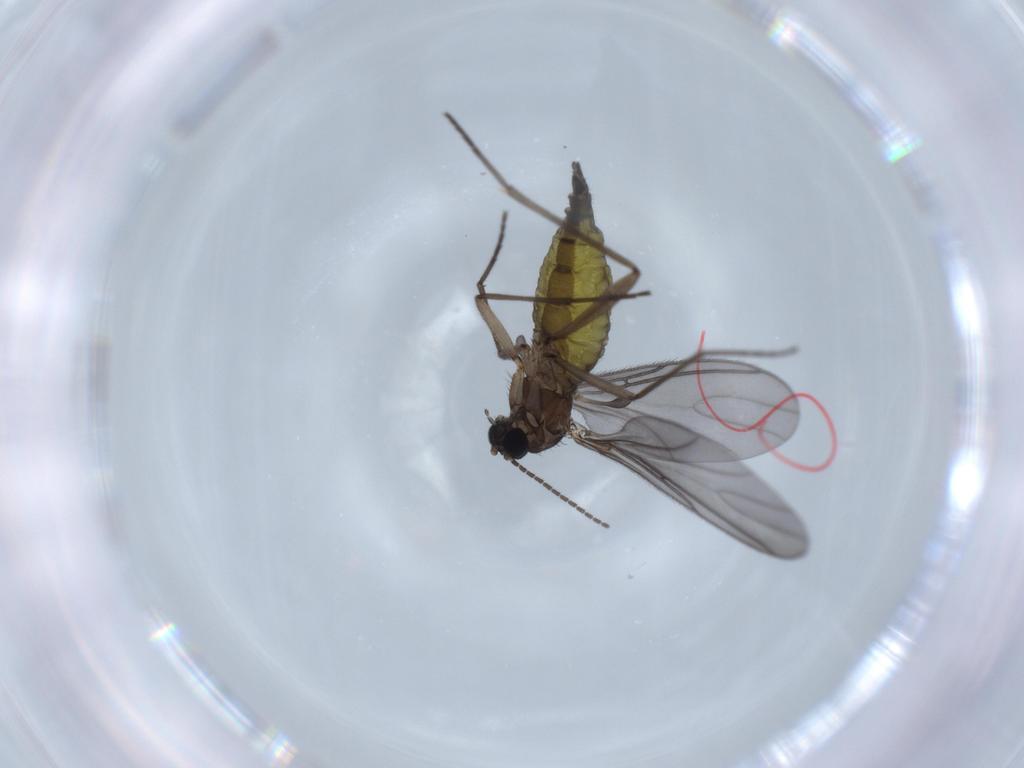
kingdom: Animalia
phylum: Arthropoda
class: Insecta
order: Diptera
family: Sciaridae
